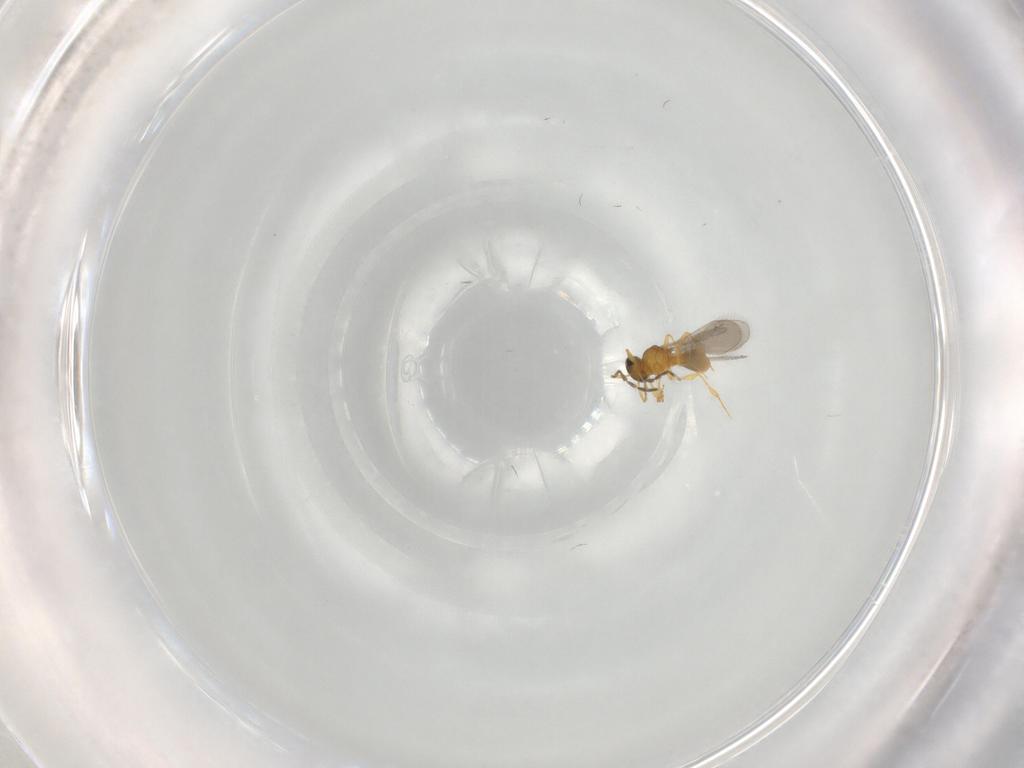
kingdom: Animalia
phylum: Arthropoda
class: Insecta
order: Hymenoptera
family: Platygastridae
